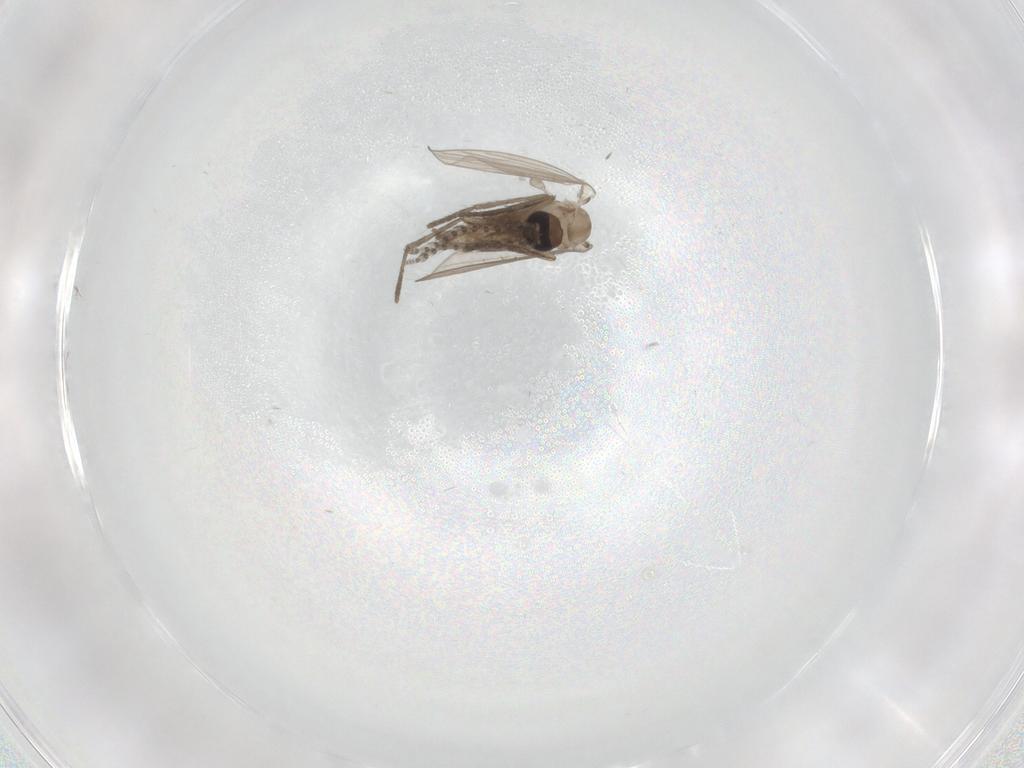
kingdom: Animalia
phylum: Arthropoda
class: Insecta
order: Diptera
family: Psychodidae
